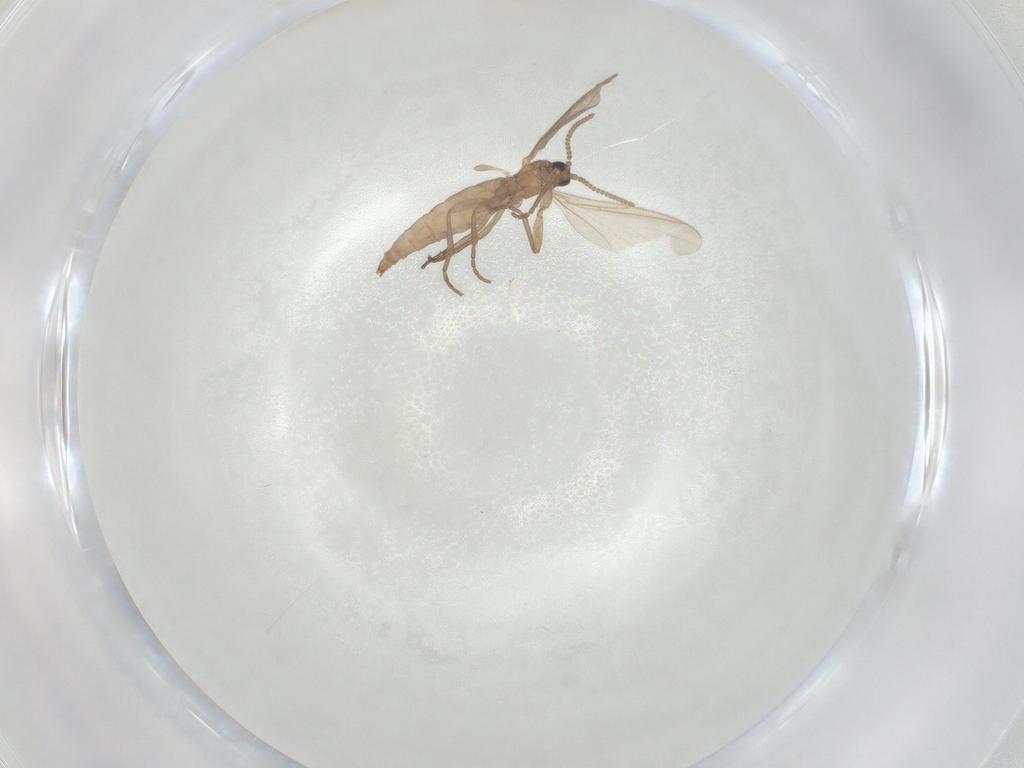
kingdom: Animalia
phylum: Arthropoda
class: Insecta
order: Diptera
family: Sciaridae
